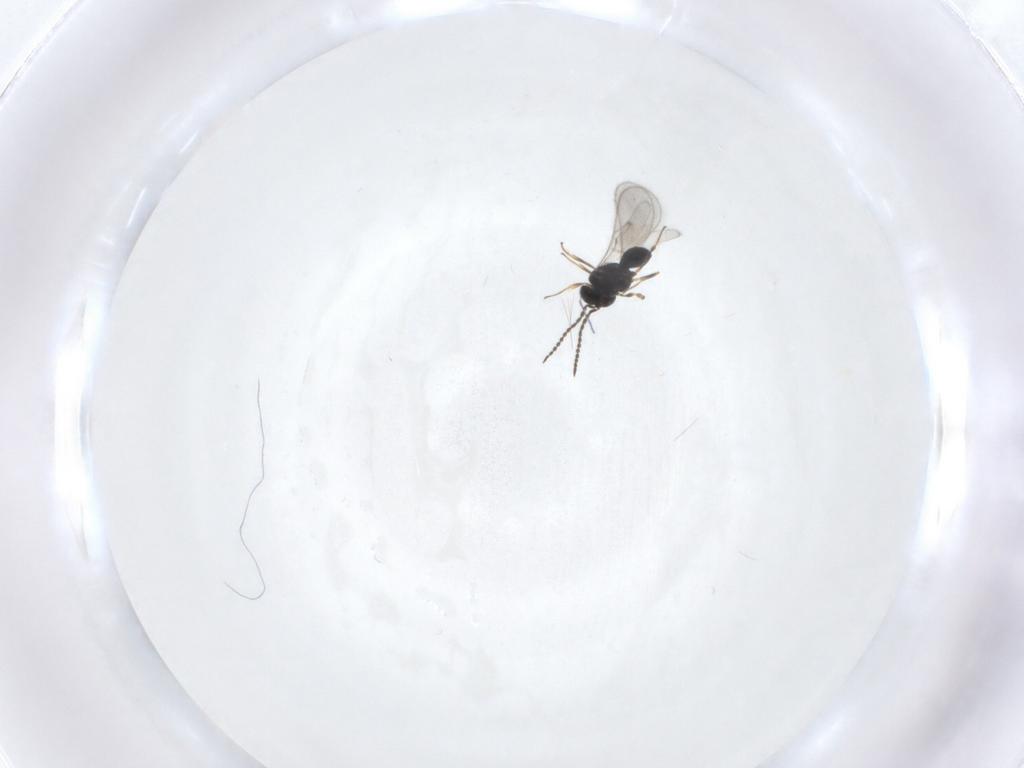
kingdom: Animalia
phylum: Arthropoda
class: Insecta
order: Hymenoptera
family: Scelionidae
